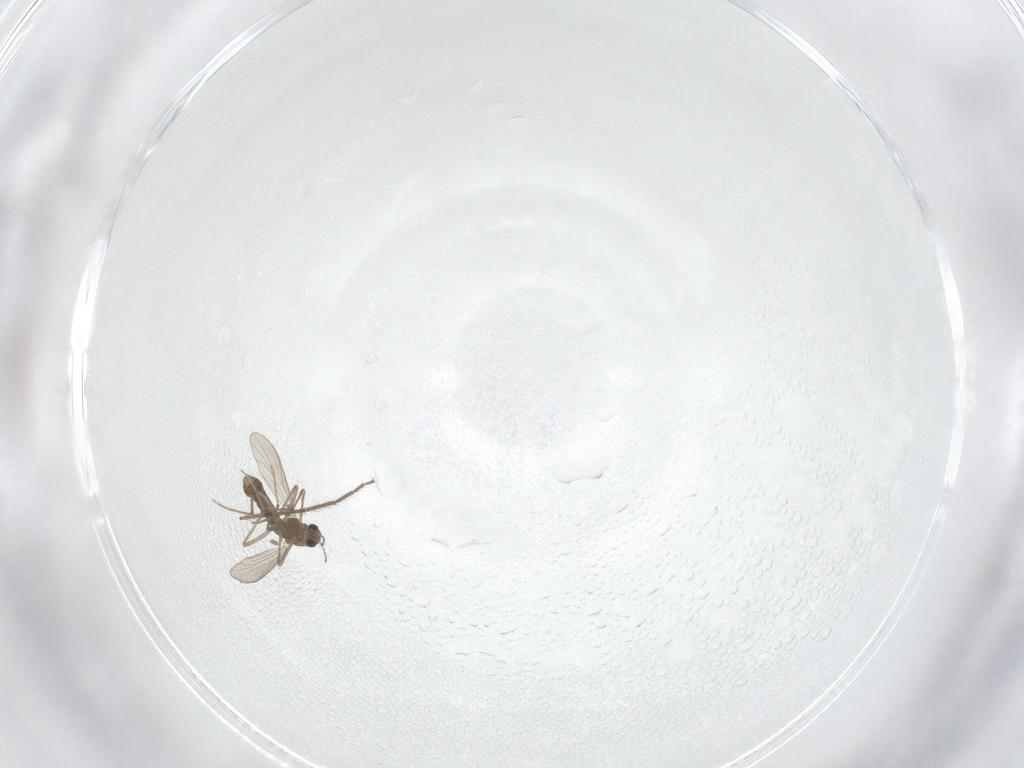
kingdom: Animalia
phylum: Arthropoda
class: Insecta
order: Diptera
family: Chironomidae
